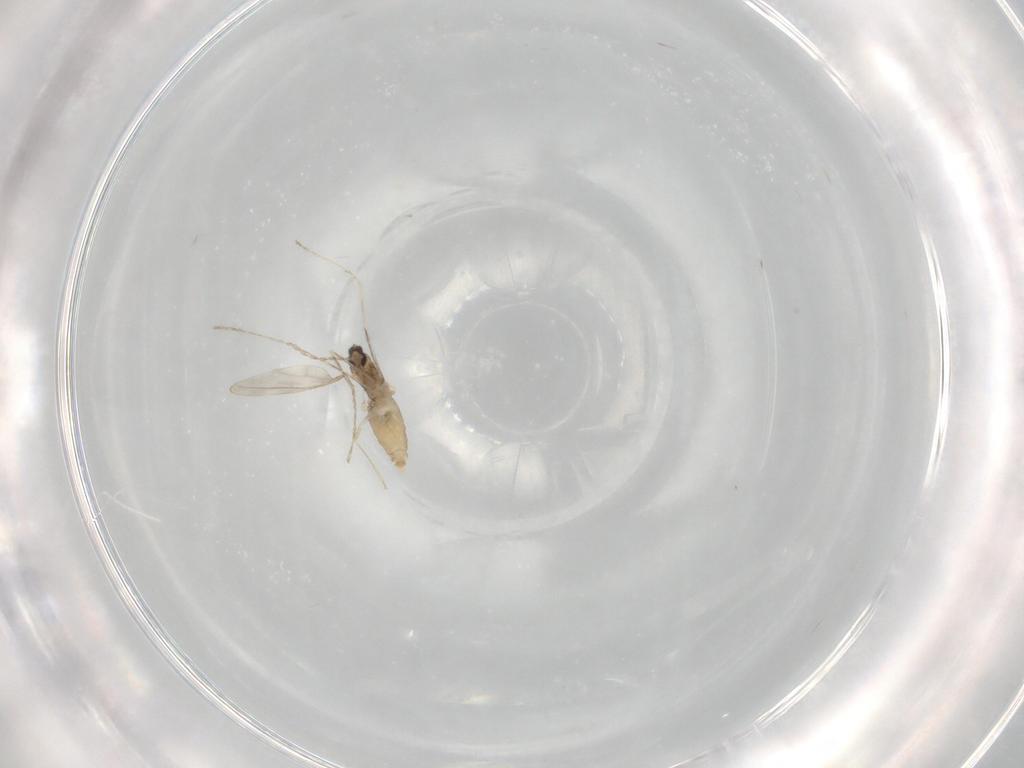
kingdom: Animalia
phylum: Arthropoda
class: Insecta
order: Diptera
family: Cecidomyiidae
